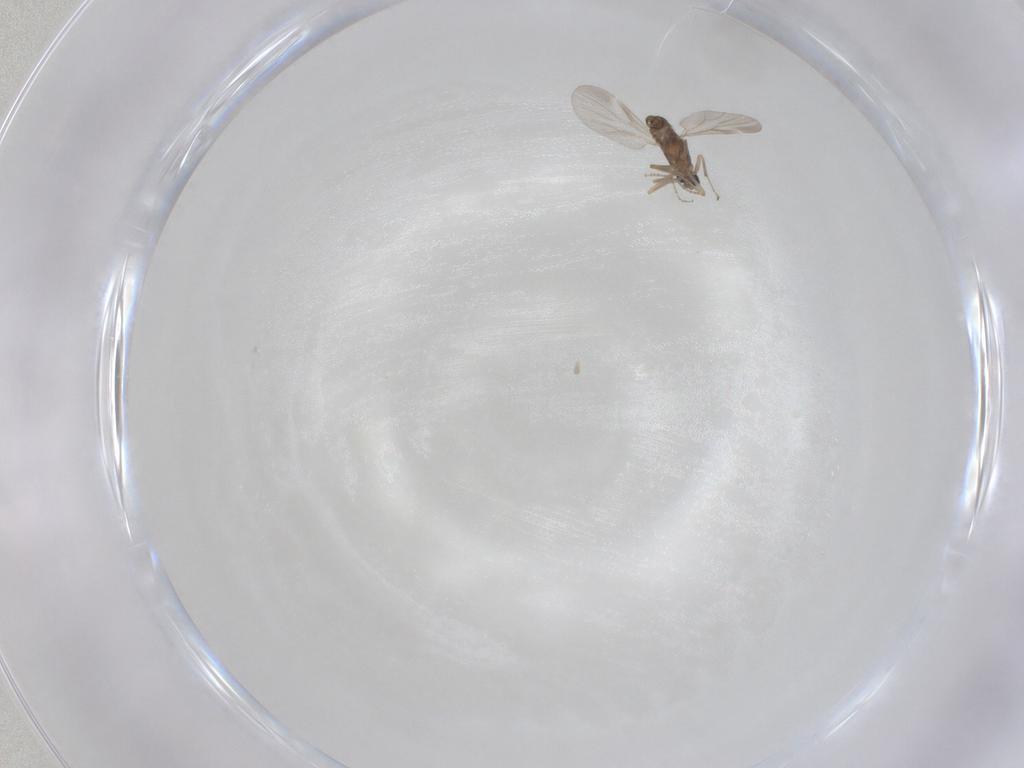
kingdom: Animalia
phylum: Arthropoda
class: Insecta
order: Diptera
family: Ceratopogonidae
